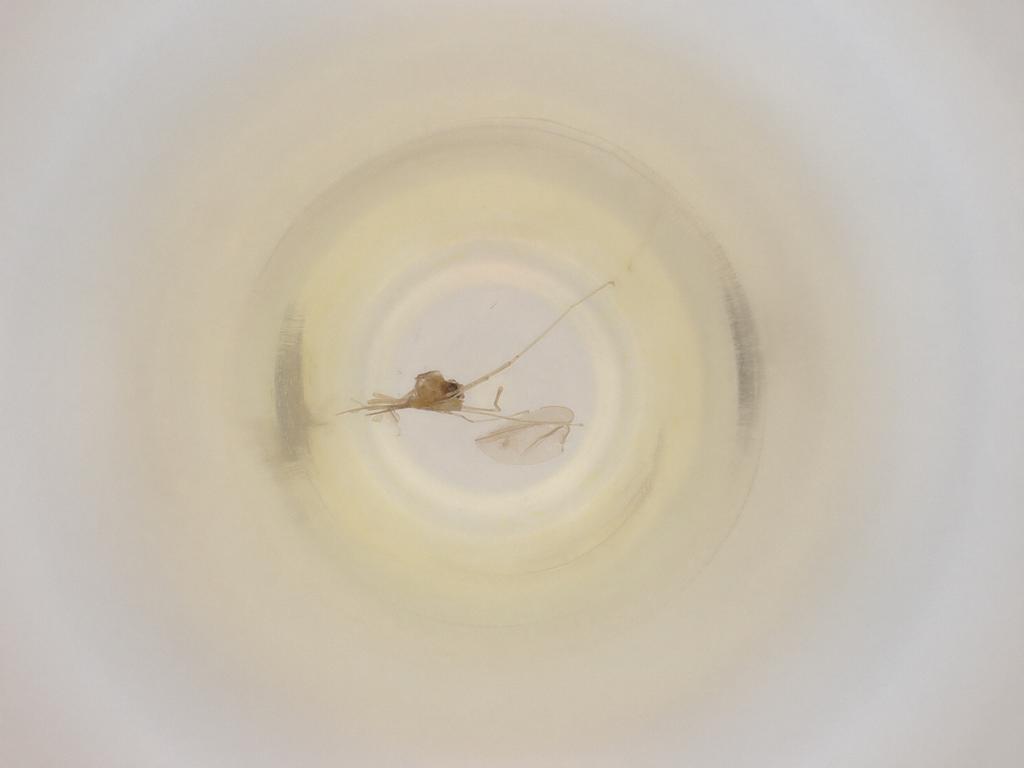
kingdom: Animalia
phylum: Arthropoda
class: Insecta
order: Diptera
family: Cecidomyiidae
